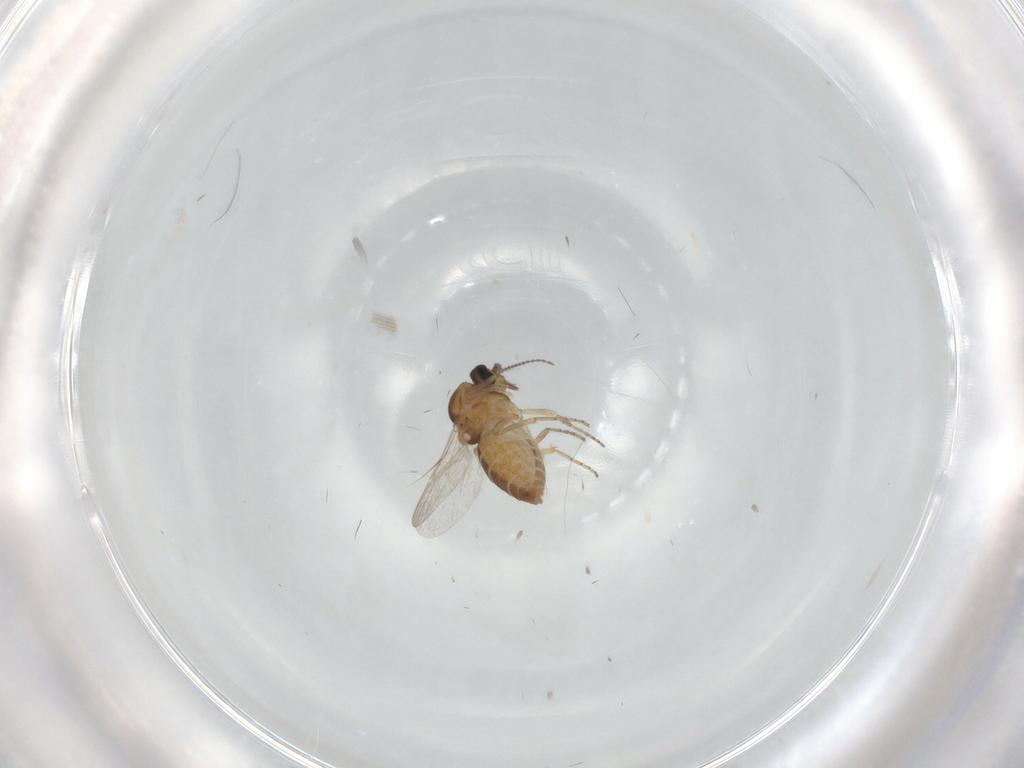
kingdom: Animalia
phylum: Arthropoda
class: Insecta
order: Diptera
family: Ceratopogonidae
